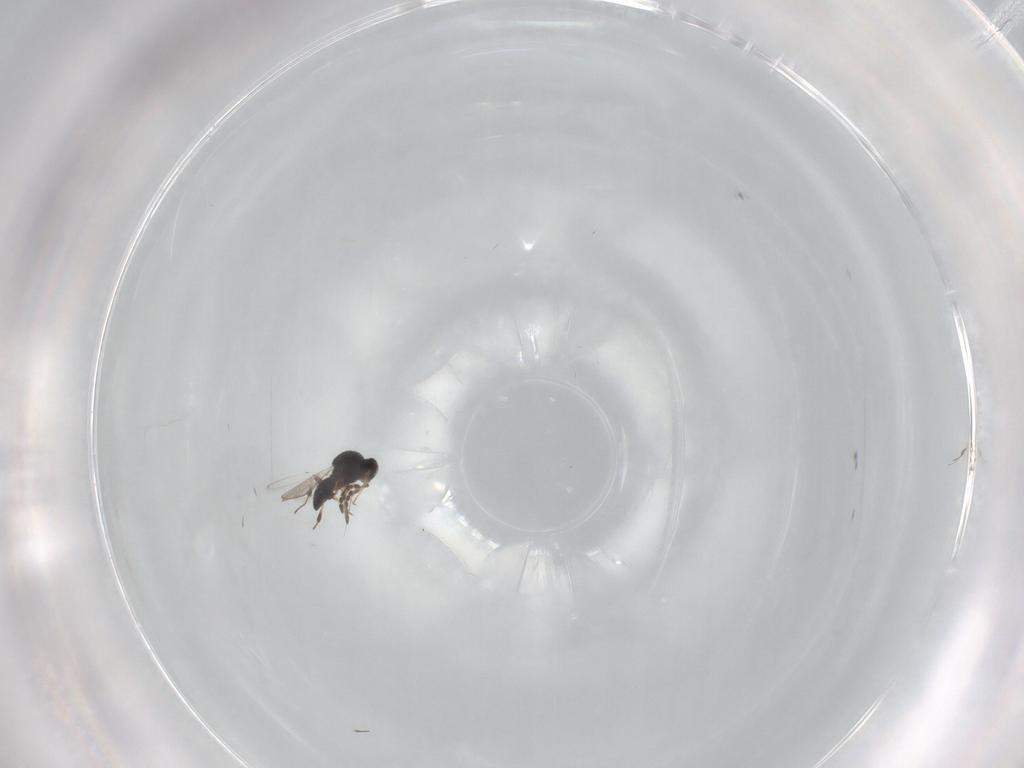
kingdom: Animalia
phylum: Arthropoda
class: Insecta
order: Hymenoptera
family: Platygastridae
